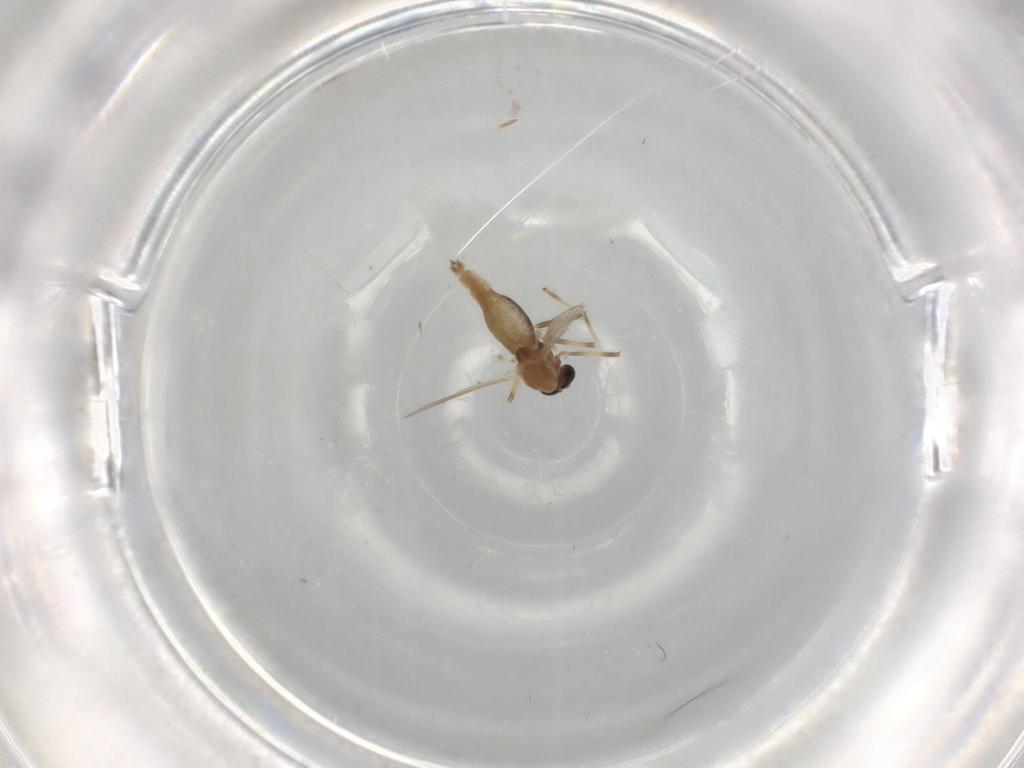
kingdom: Animalia
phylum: Arthropoda
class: Insecta
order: Diptera
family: Chironomidae
